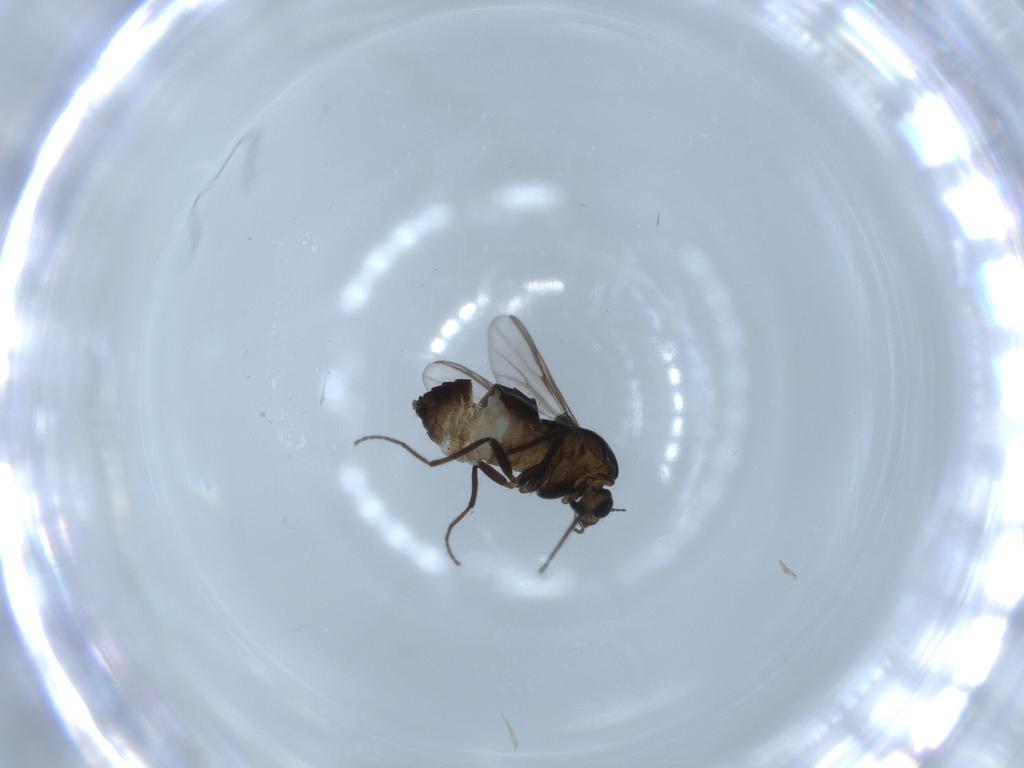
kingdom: Animalia
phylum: Arthropoda
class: Insecta
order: Diptera
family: Chironomidae
